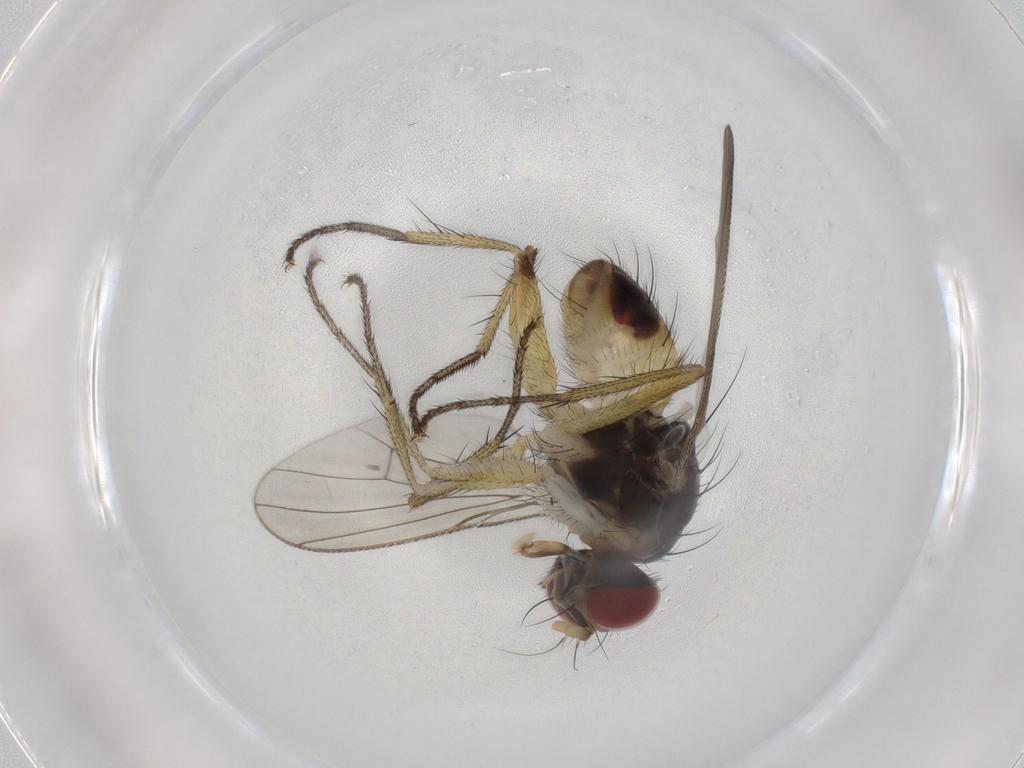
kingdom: Animalia
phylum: Arthropoda
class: Insecta
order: Diptera
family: Muscidae
